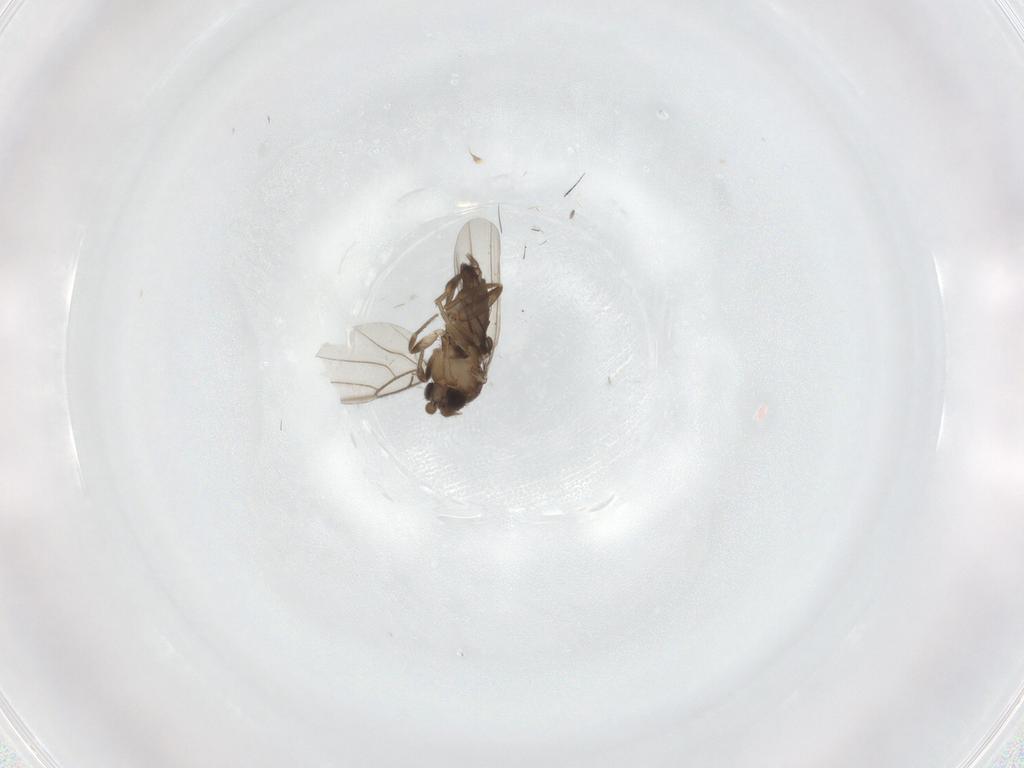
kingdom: Animalia
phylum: Arthropoda
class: Insecta
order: Diptera
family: Phoridae
